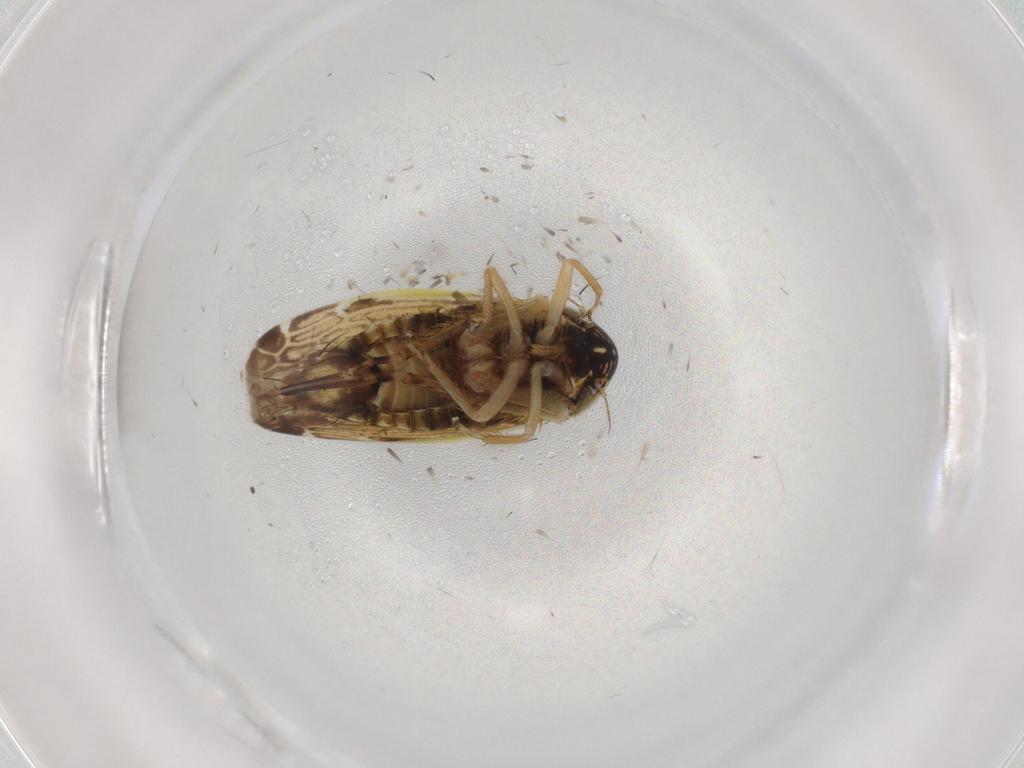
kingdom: Animalia
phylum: Arthropoda
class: Insecta
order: Hemiptera
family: Cicadellidae
